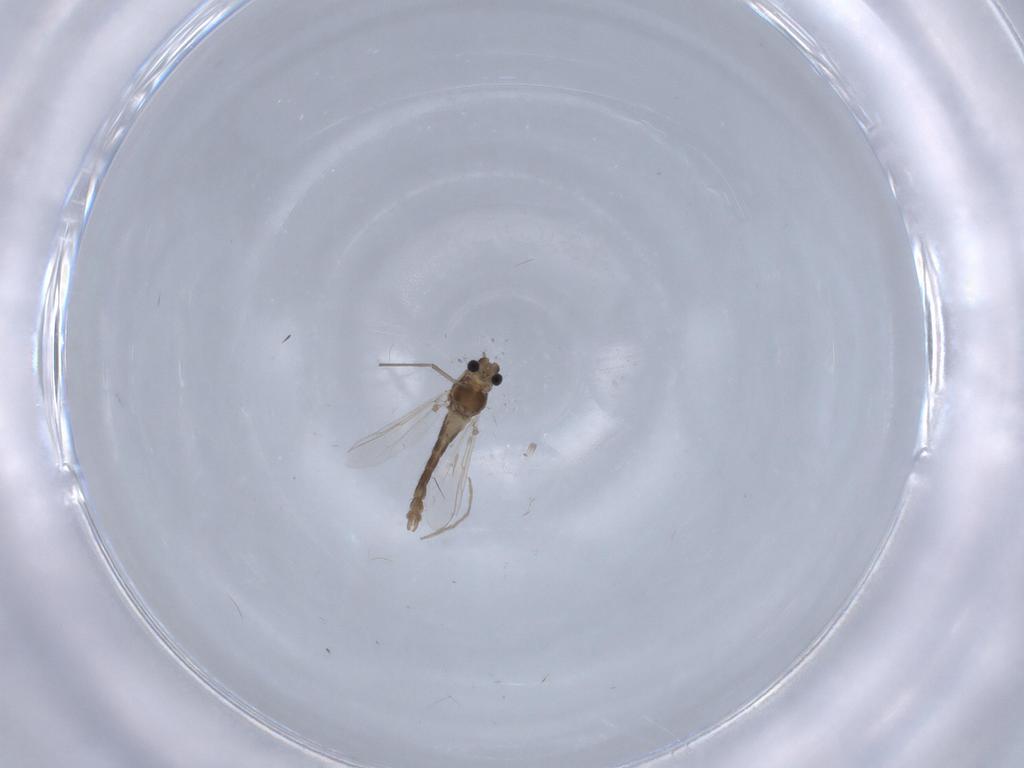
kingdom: Animalia
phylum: Arthropoda
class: Insecta
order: Diptera
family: Chironomidae
